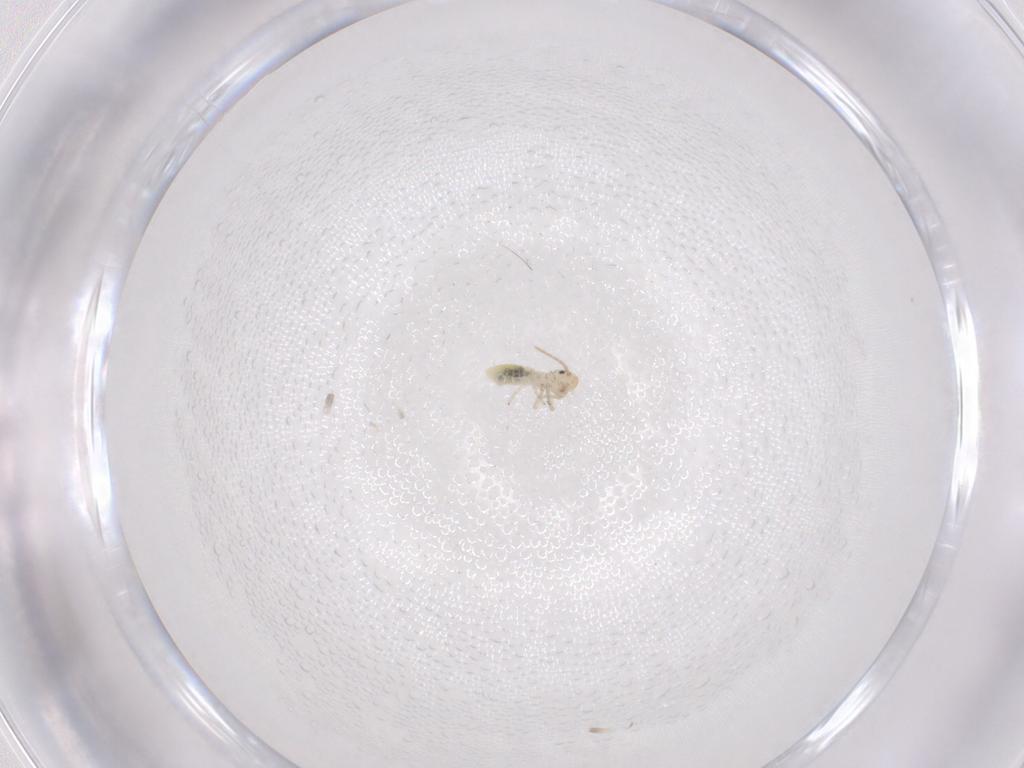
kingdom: Animalia
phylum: Arthropoda
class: Insecta
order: Psocodea
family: Caeciliusidae
